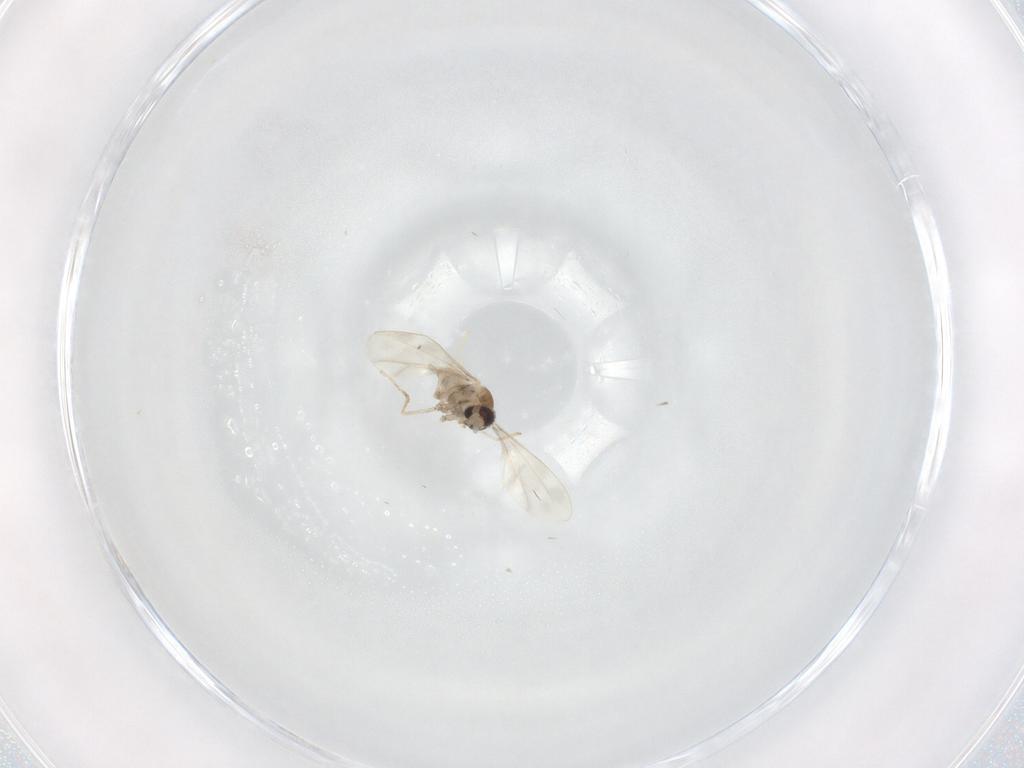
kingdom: Animalia
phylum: Arthropoda
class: Insecta
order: Diptera
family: Cecidomyiidae
